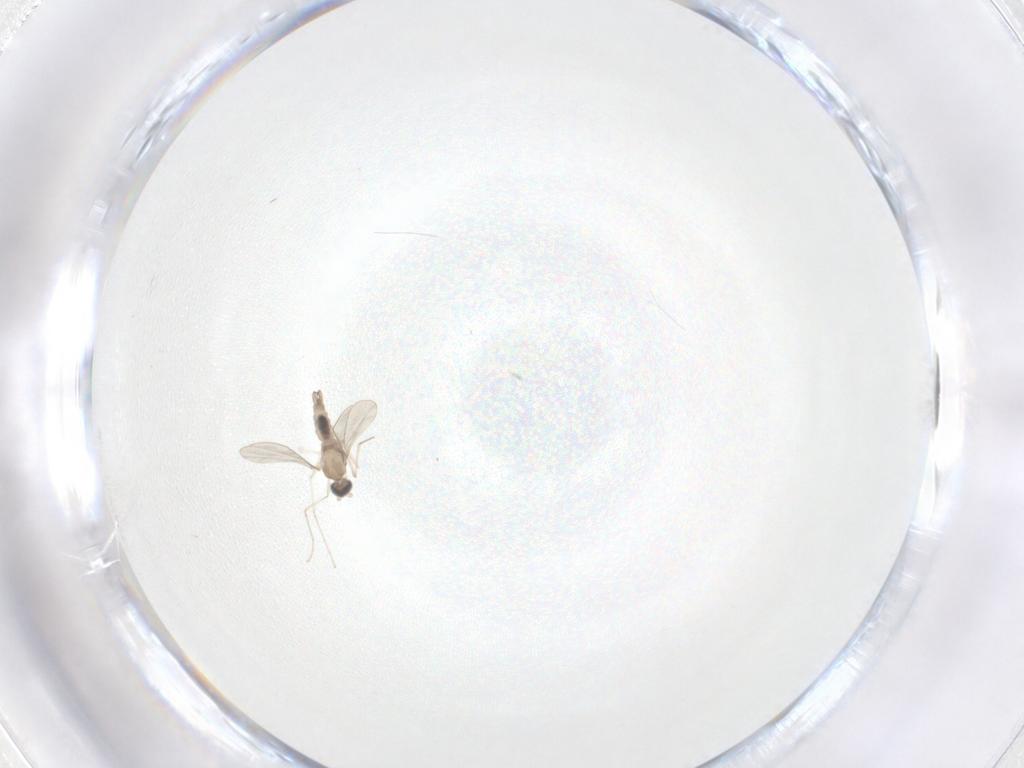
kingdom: Animalia
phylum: Arthropoda
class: Insecta
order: Diptera
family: Cecidomyiidae
